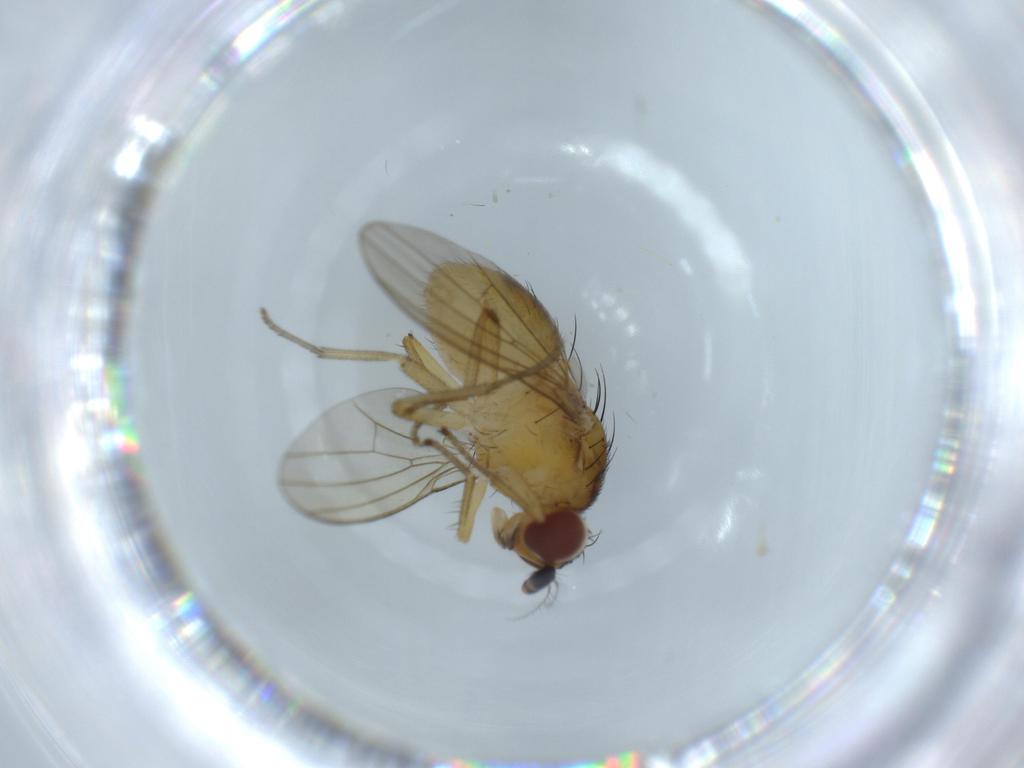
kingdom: Animalia
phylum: Arthropoda
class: Insecta
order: Diptera
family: Lauxaniidae
